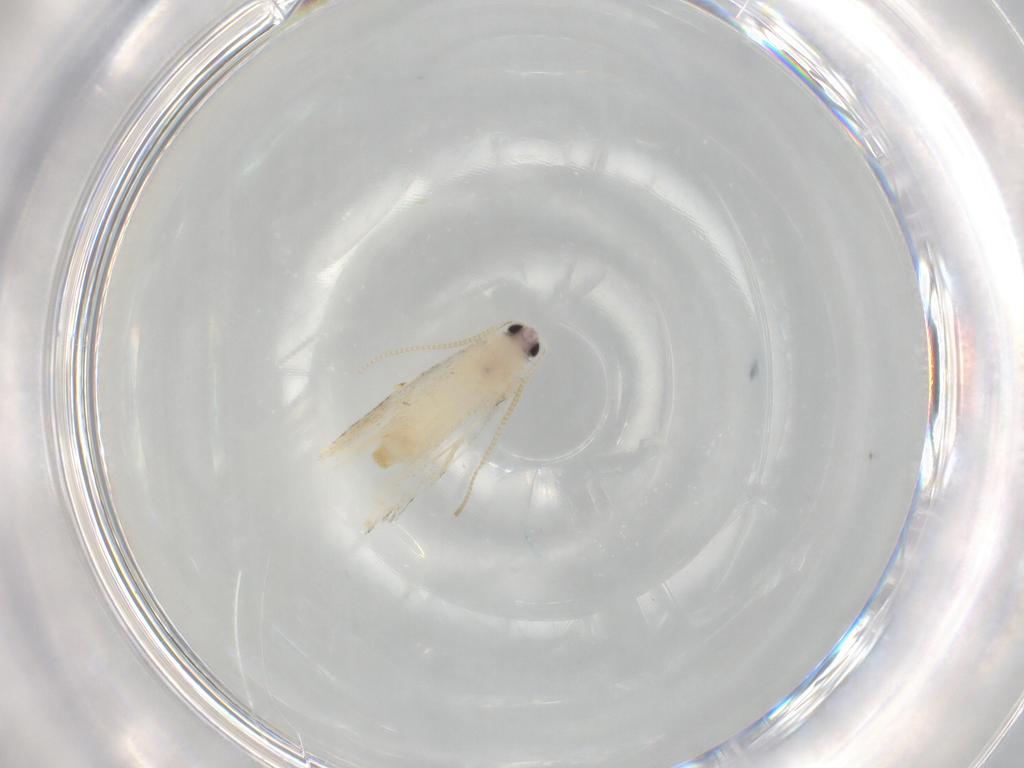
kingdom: Animalia
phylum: Arthropoda
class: Insecta
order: Lepidoptera
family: Tineidae
